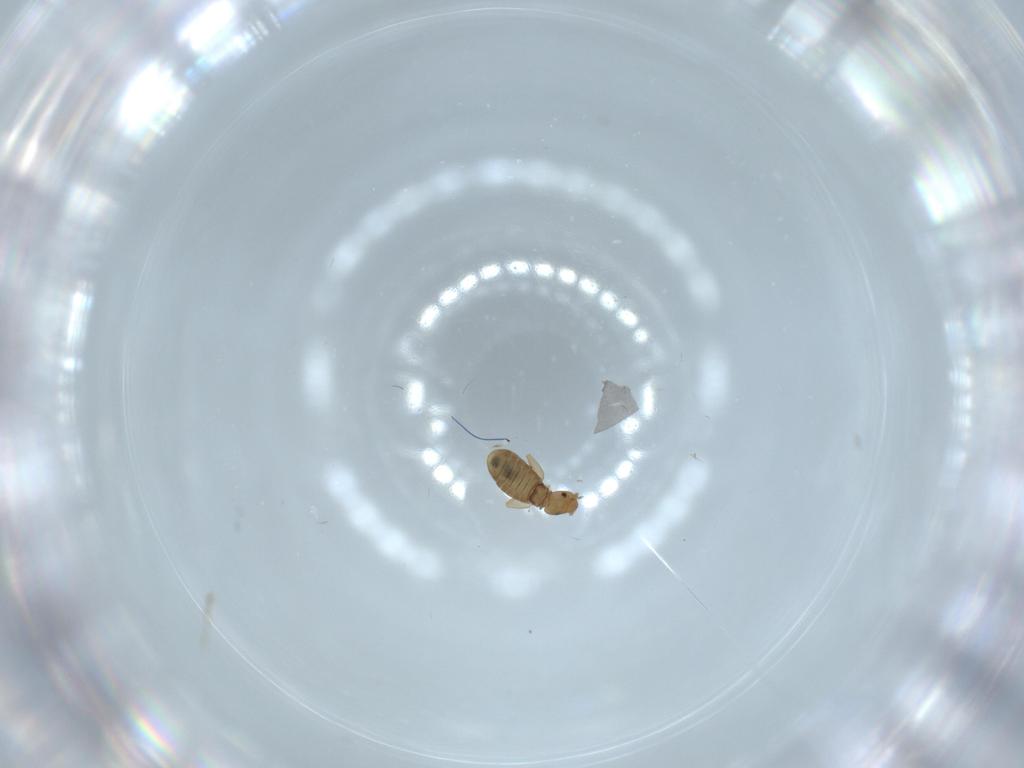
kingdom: Animalia
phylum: Arthropoda
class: Insecta
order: Psocodea
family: Liposcelididae
